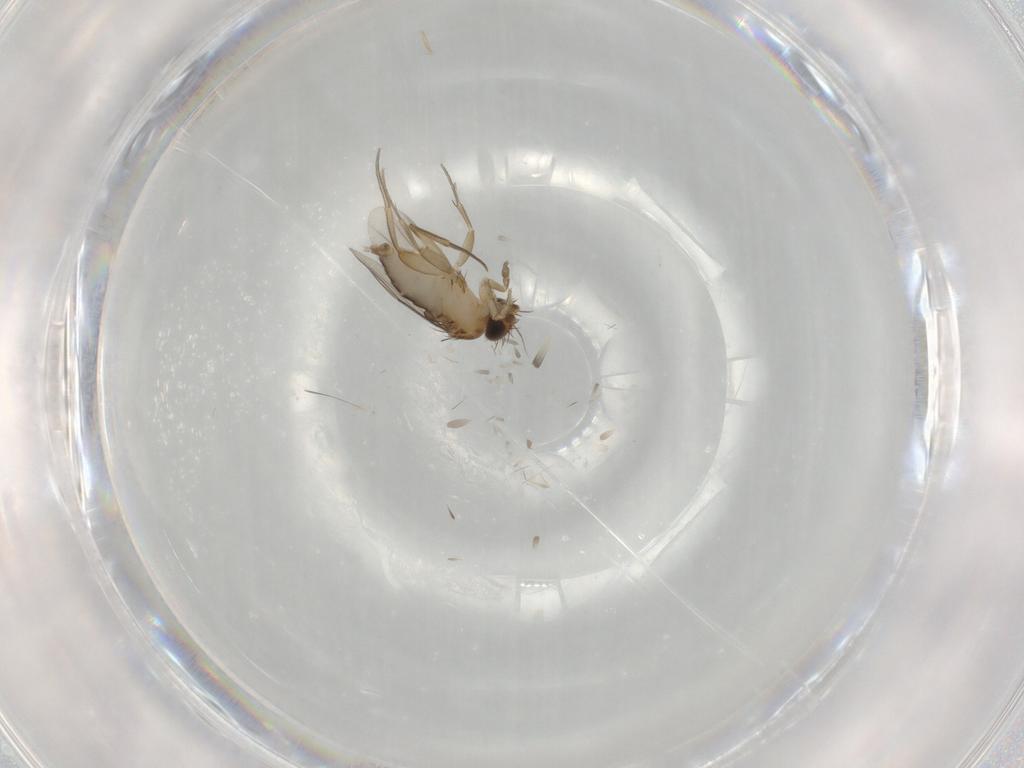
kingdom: Animalia
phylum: Arthropoda
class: Insecta
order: Diptera
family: Phoridae
